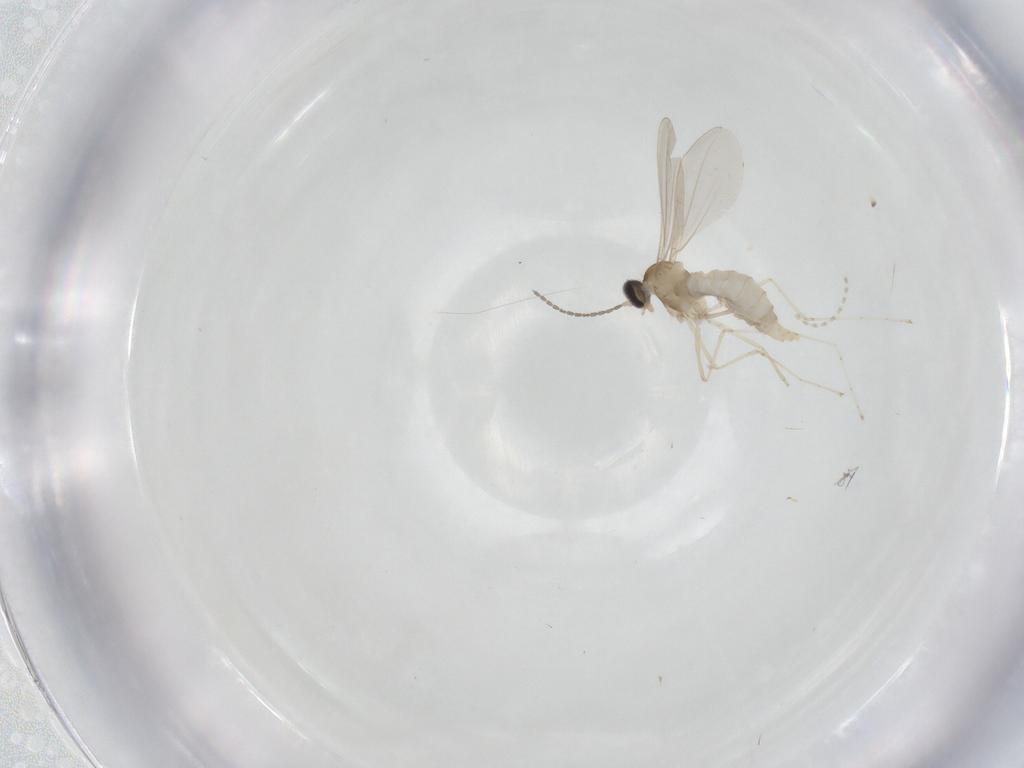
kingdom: Animalia
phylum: Arthropoda
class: Insecta
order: Diptera
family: Cecidomyiidae
